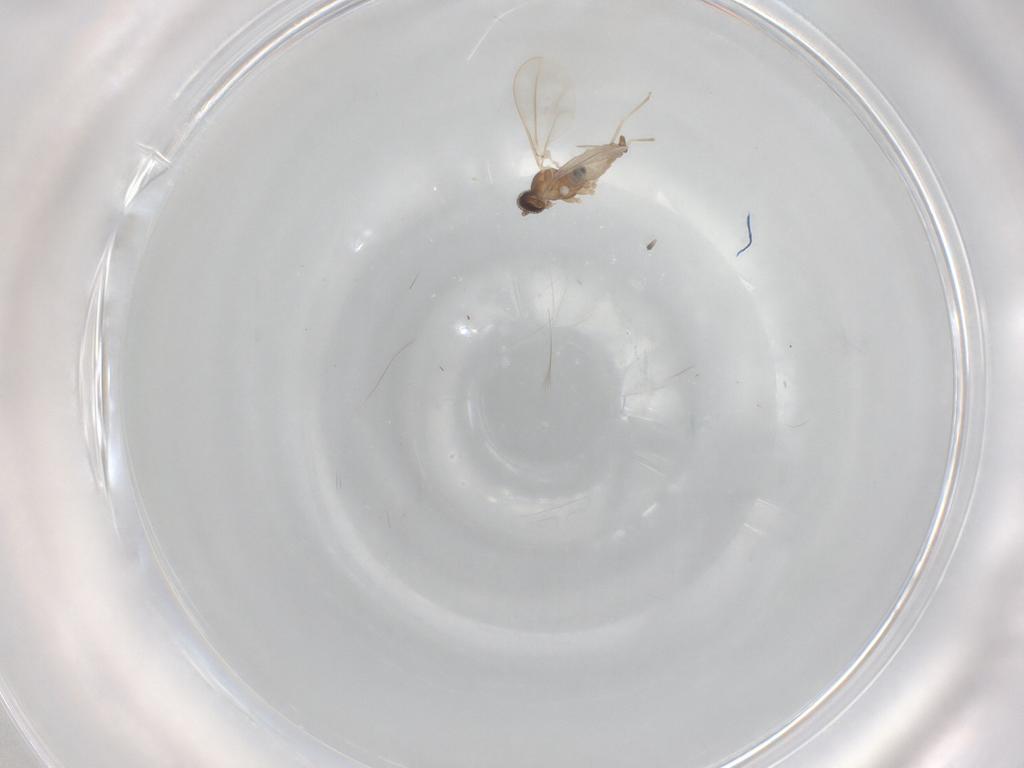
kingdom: Animalia
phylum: Arthropoda
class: Insecta
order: Diptera
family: Cecidomyiidae
